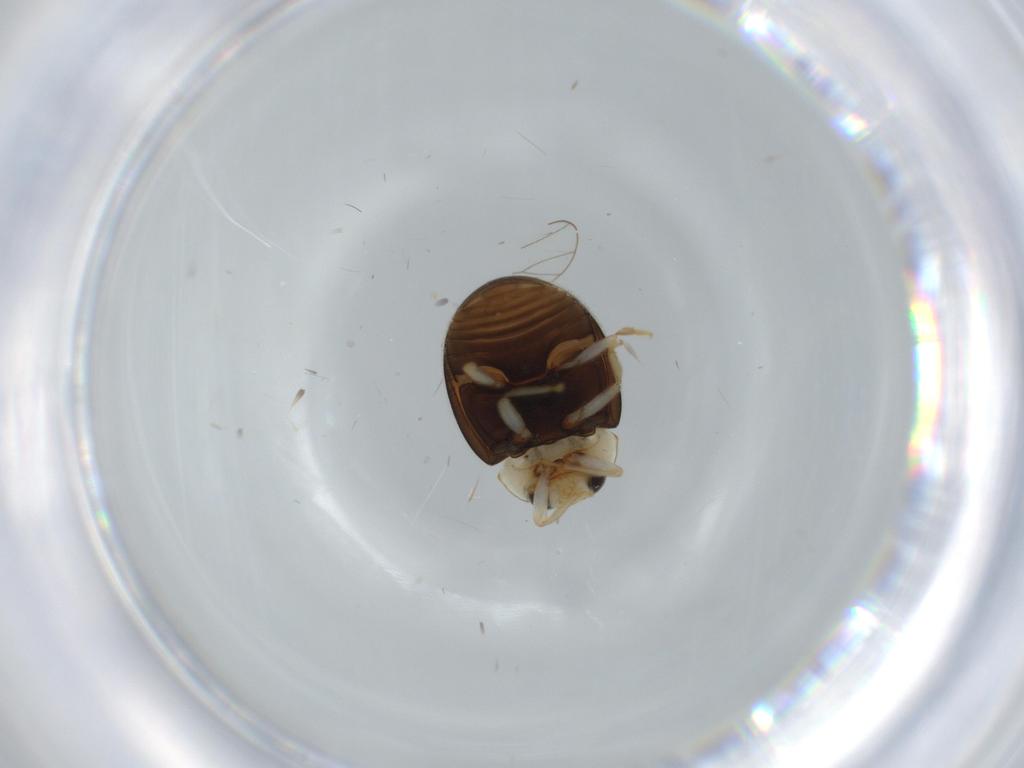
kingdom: Animalia
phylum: Arthropoda
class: Insecta
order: Coleoptera
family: Coccinellidae
